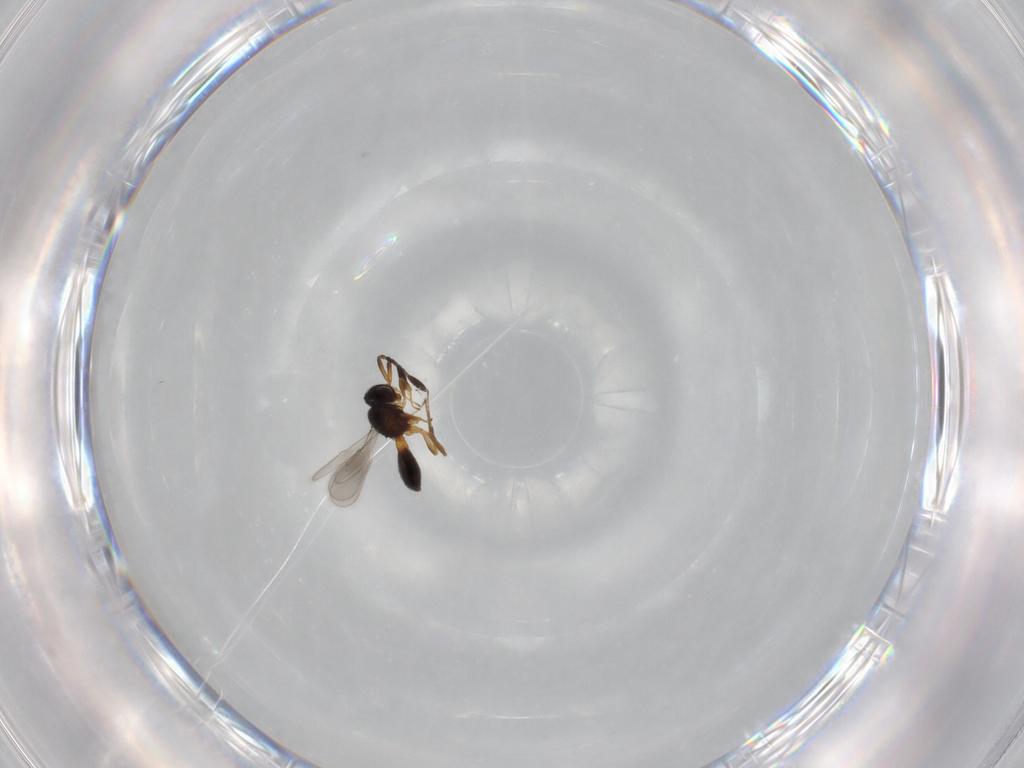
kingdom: Animalia
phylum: Arthropoda
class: Insecta
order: Hymenoptera
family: Scelionidae
